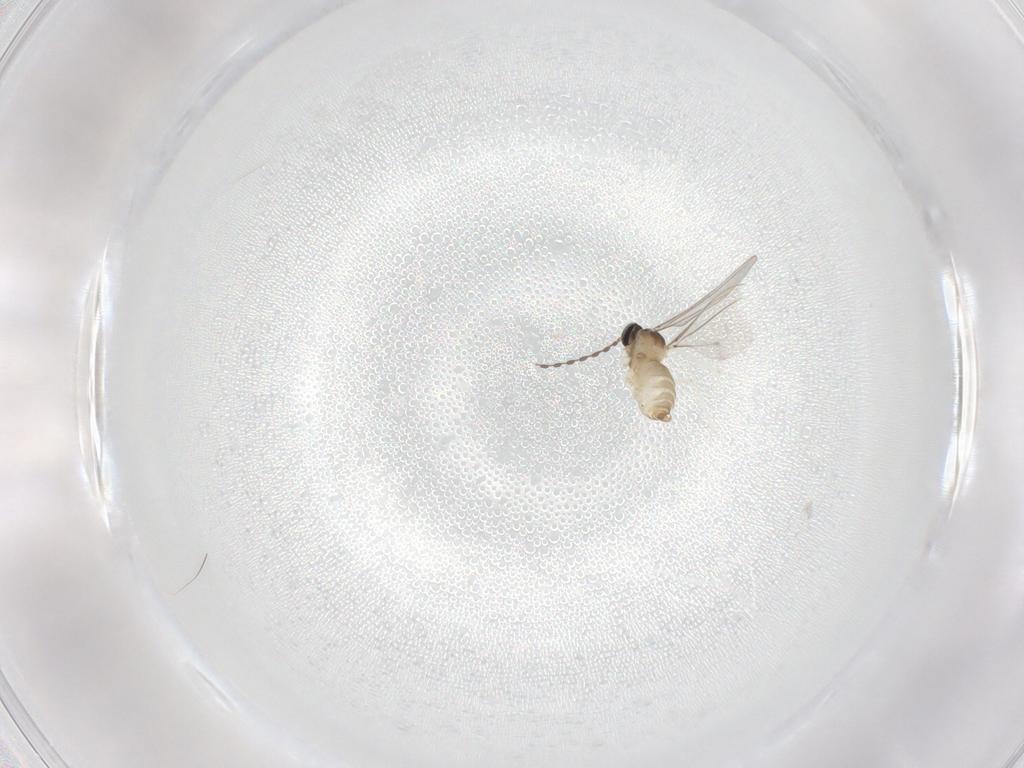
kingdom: Animalia
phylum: Arthropoda
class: Insecta
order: Diptera
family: Cecidomyiidae
